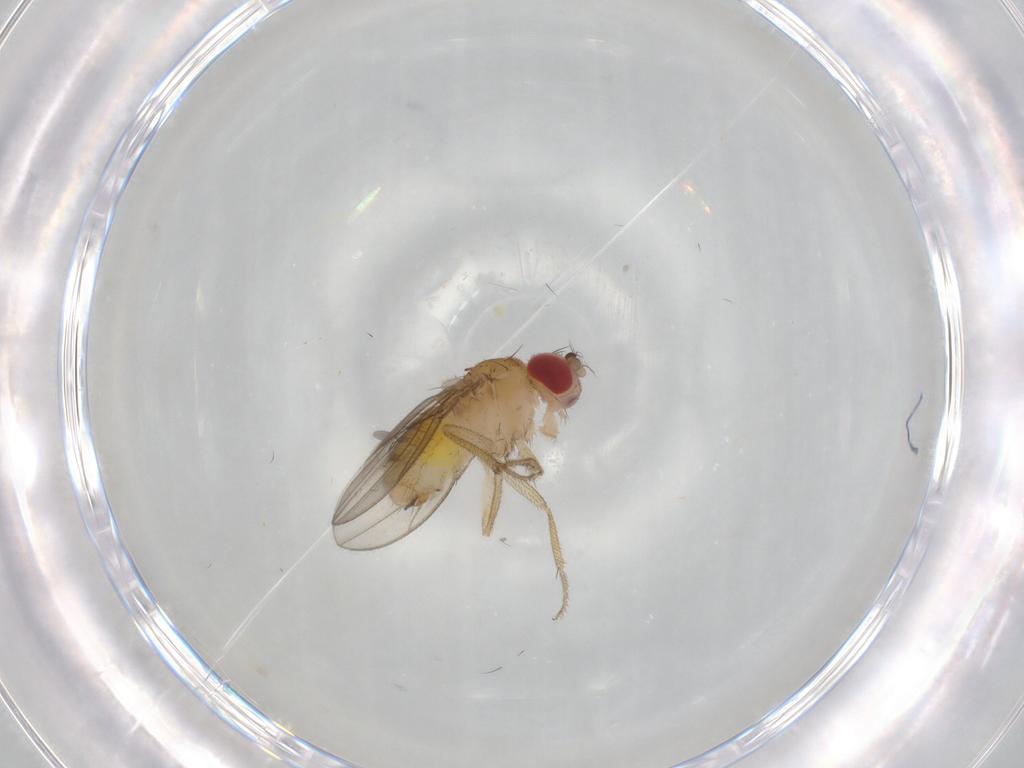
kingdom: Animalia
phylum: Arthropoda
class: Insecta
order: Diptera
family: Drosophilidae
